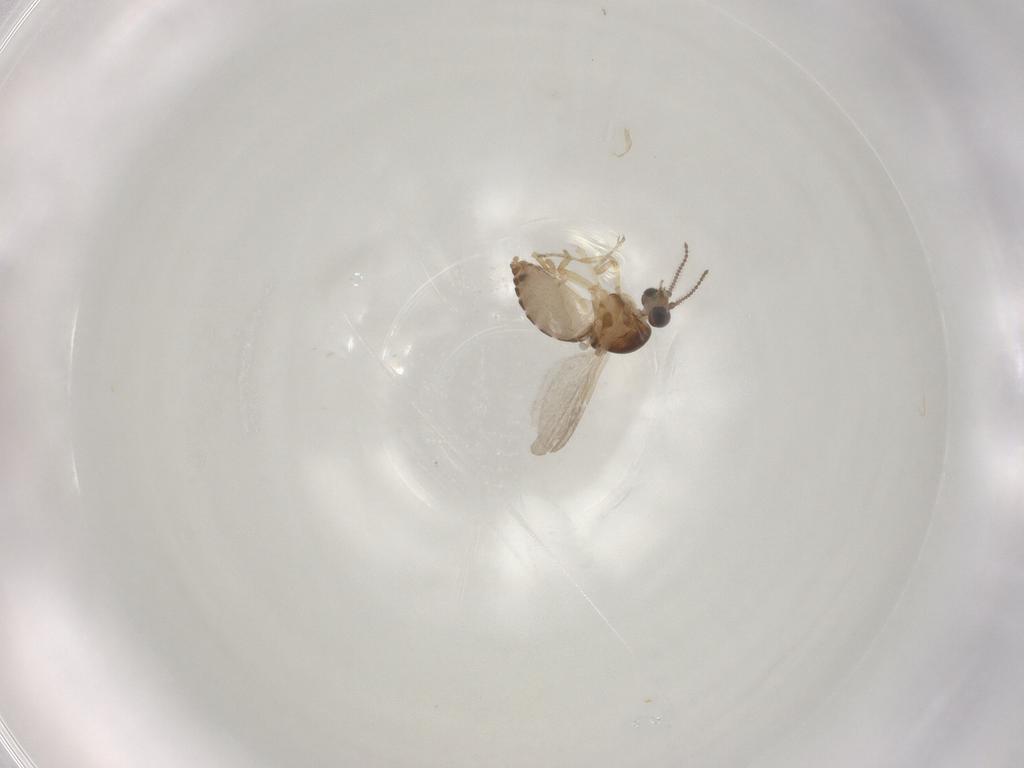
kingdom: Animalia
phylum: Arthropoda
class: Insecta
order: Diptera
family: Ceratopogonidae
